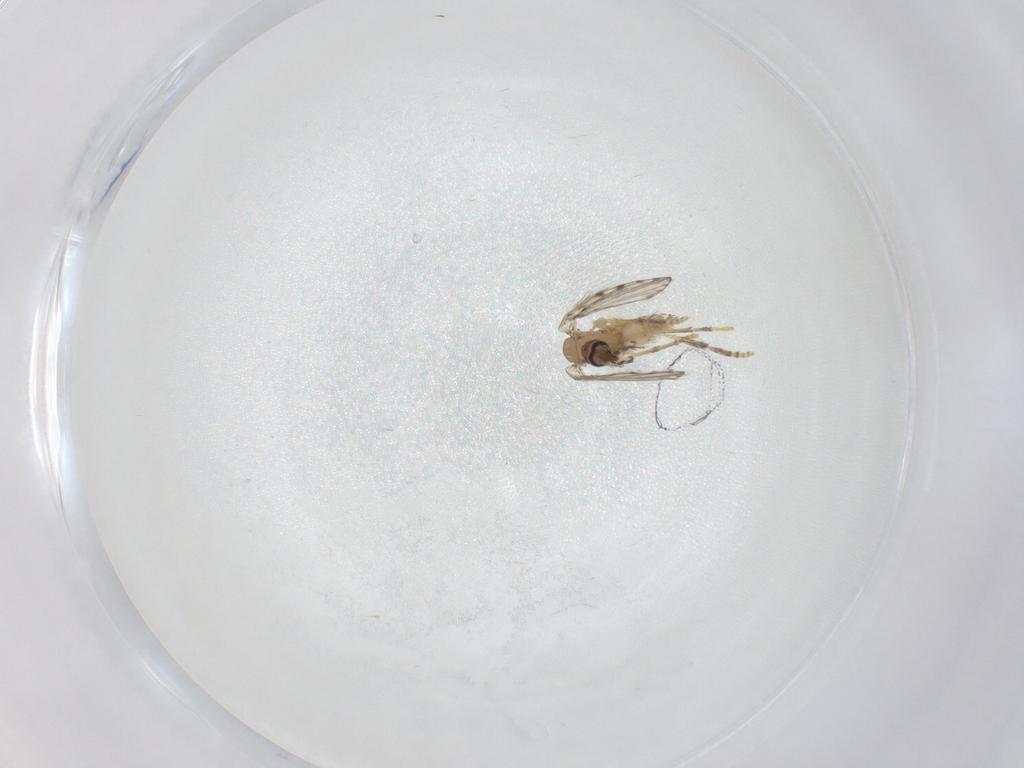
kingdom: Animalia
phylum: Arthropoda
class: Insecta
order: Diptera
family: Psychodidae
